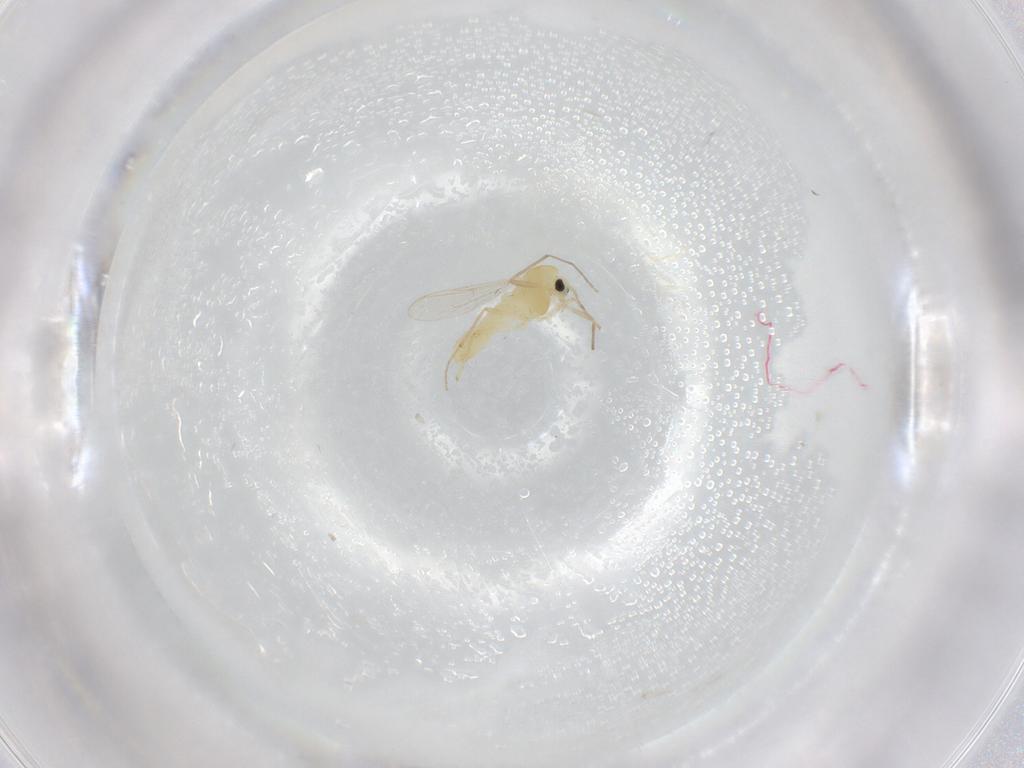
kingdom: Animalia
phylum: Arthropoda
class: Insecta
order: Diptera
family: Chironomidae
